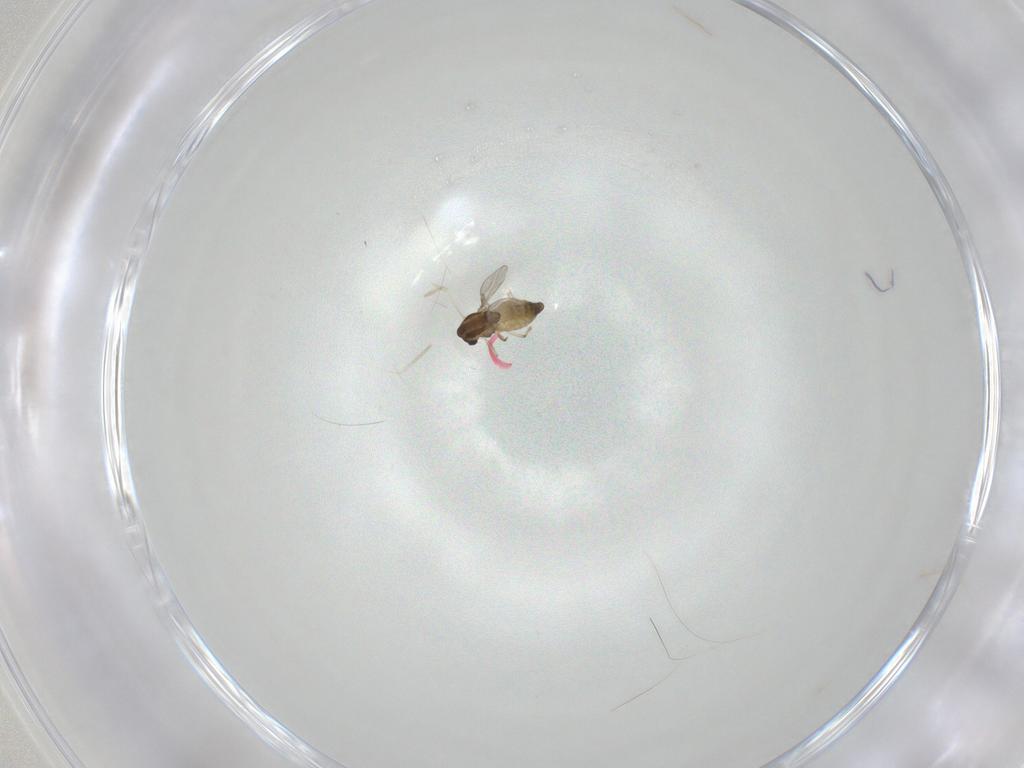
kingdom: Animalia
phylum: Arthropoda
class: Insecta
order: Diptera
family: Chironomidae
